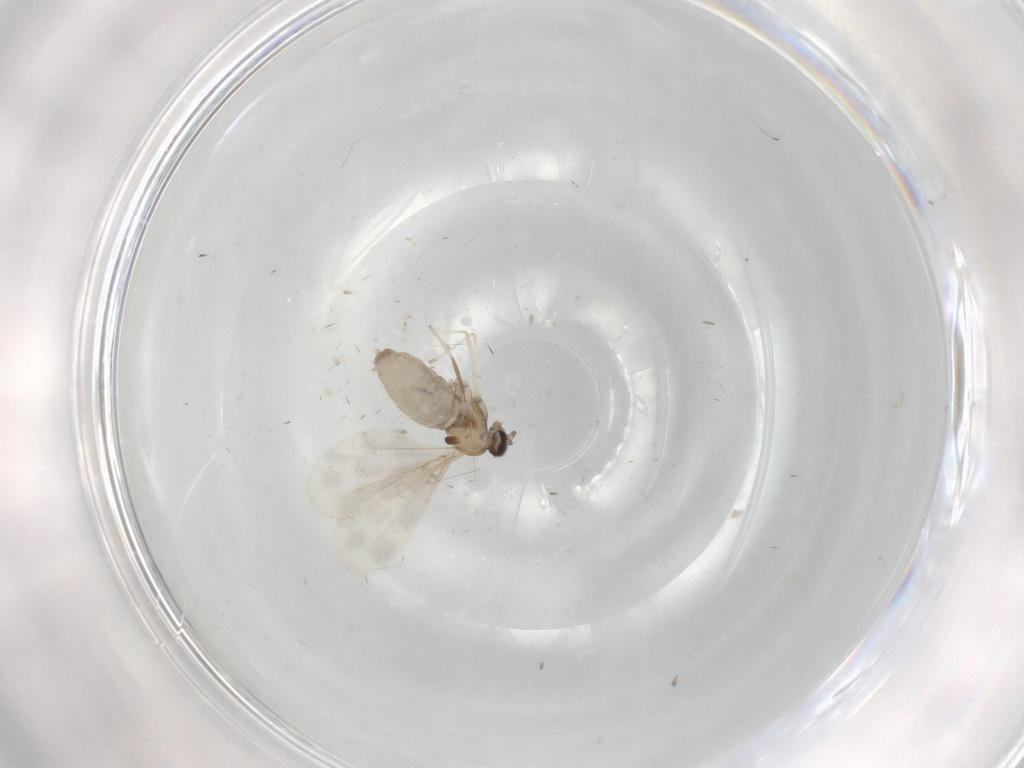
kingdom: Animalia
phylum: Arthropoda
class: Insecta
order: Diptera
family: Cecidomyiidae
